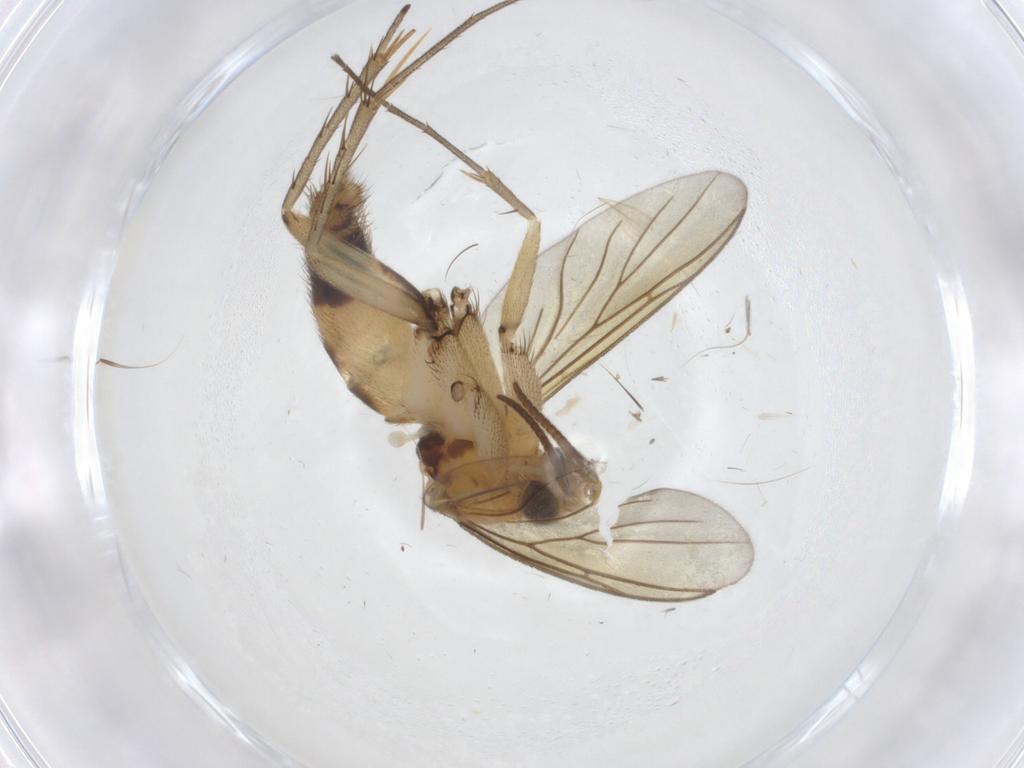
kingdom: Animalia
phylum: Arthropoda
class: Insecta
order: Diptera
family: Mycetophilidae
